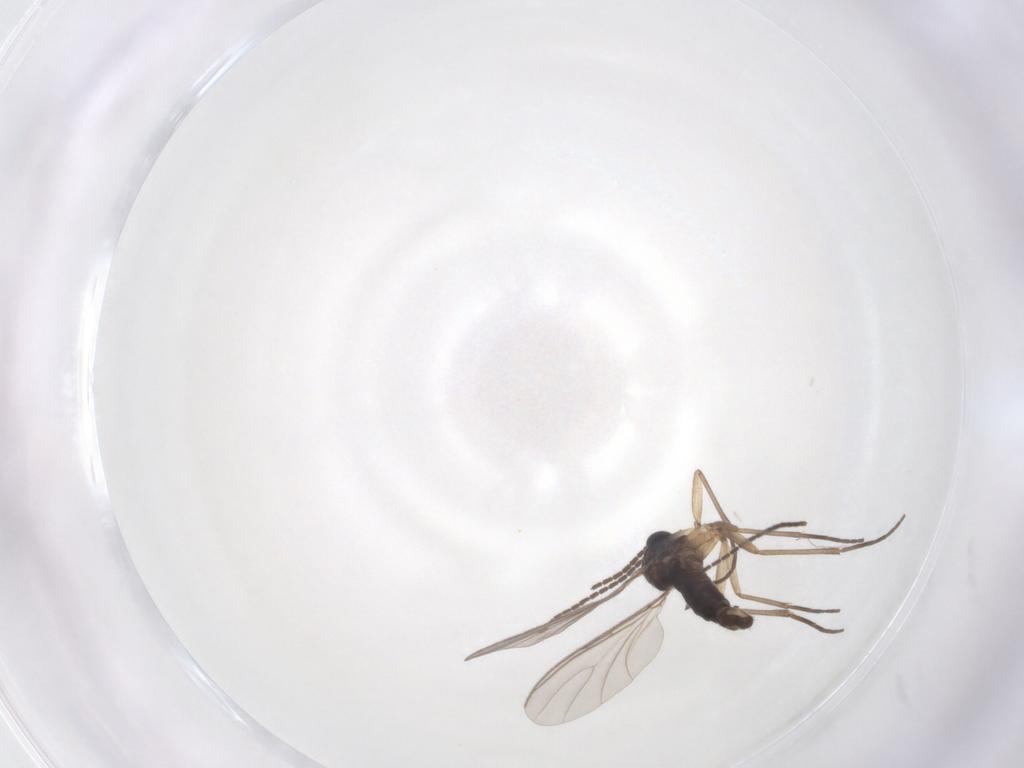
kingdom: Animalia
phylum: Arthropoda
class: Insecta
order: Diptera
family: Sciaridae
